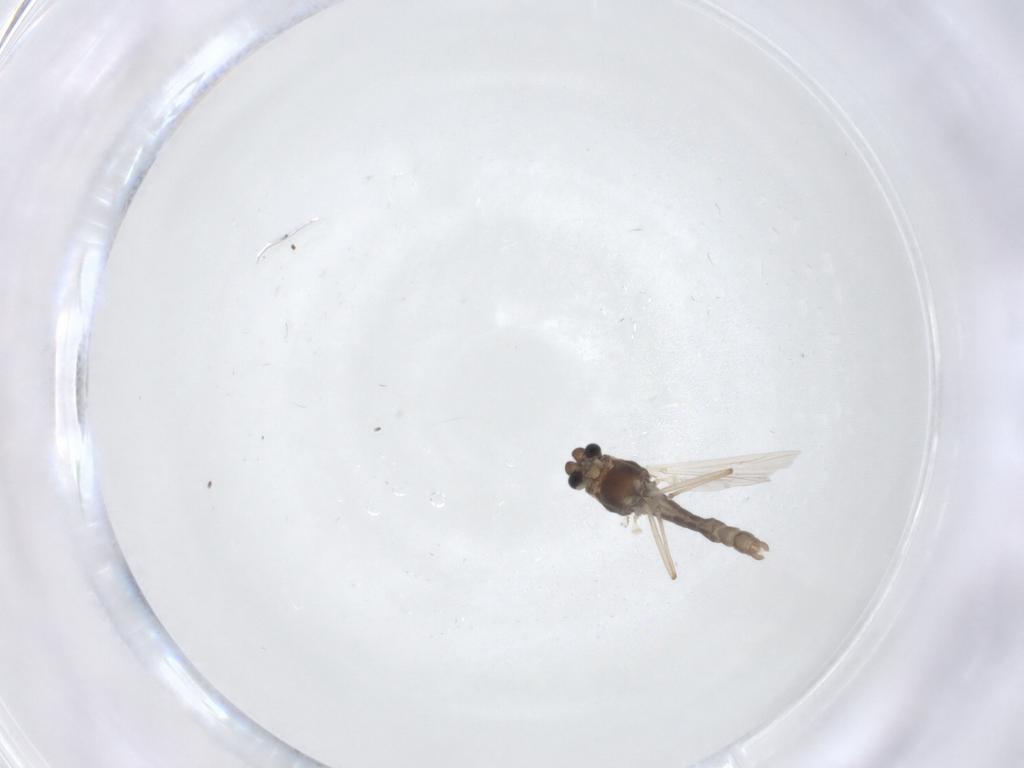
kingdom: Animalia
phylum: Arthropoda
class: Insecta
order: Diptera
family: Chironomidae
